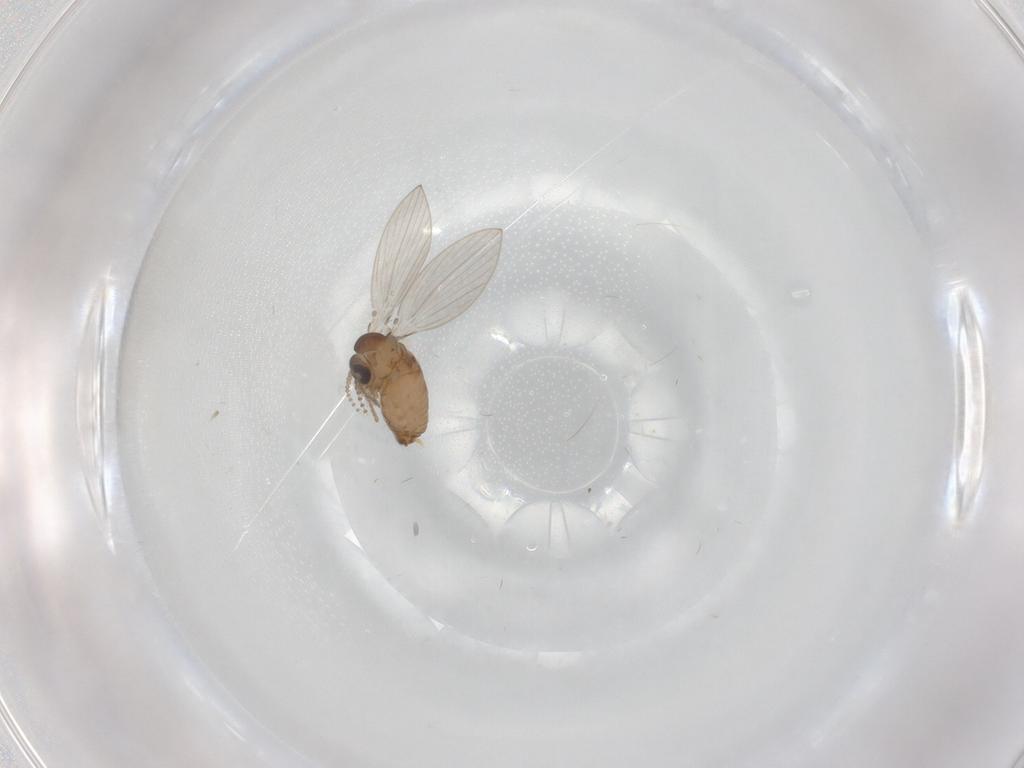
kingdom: Animalia
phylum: Arthropoda
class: Insecta
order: Diptera
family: Psychodidae
